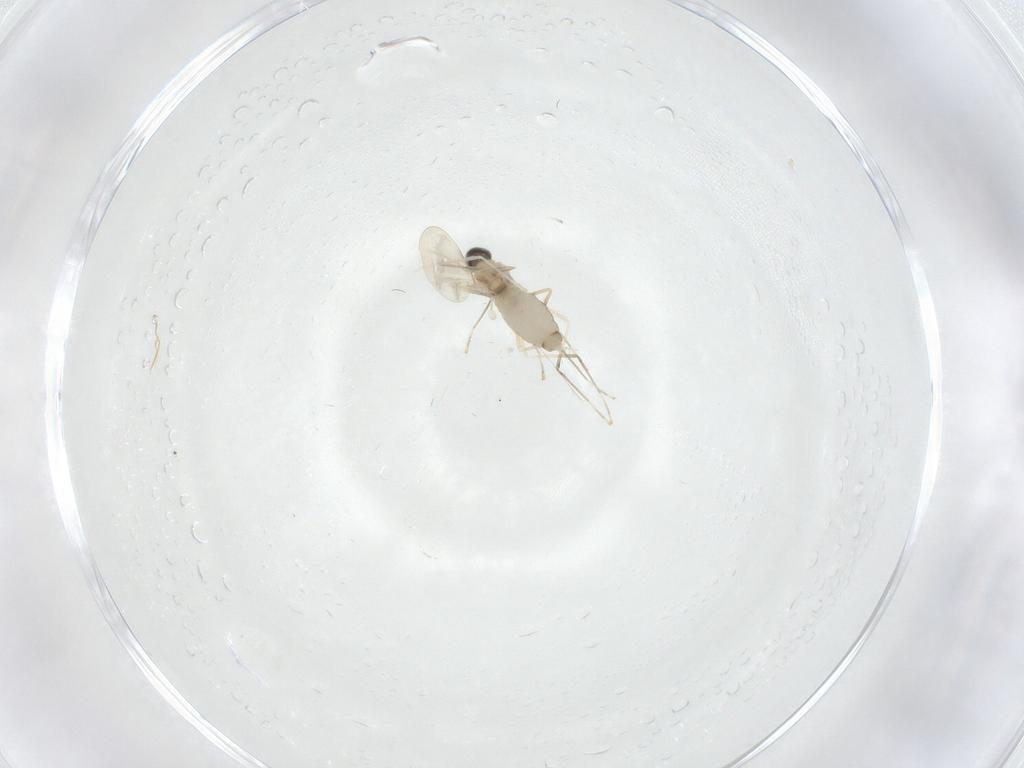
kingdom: Animalia
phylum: Arthropoda
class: Insecta
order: Diptera
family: Cecidomyiidae
